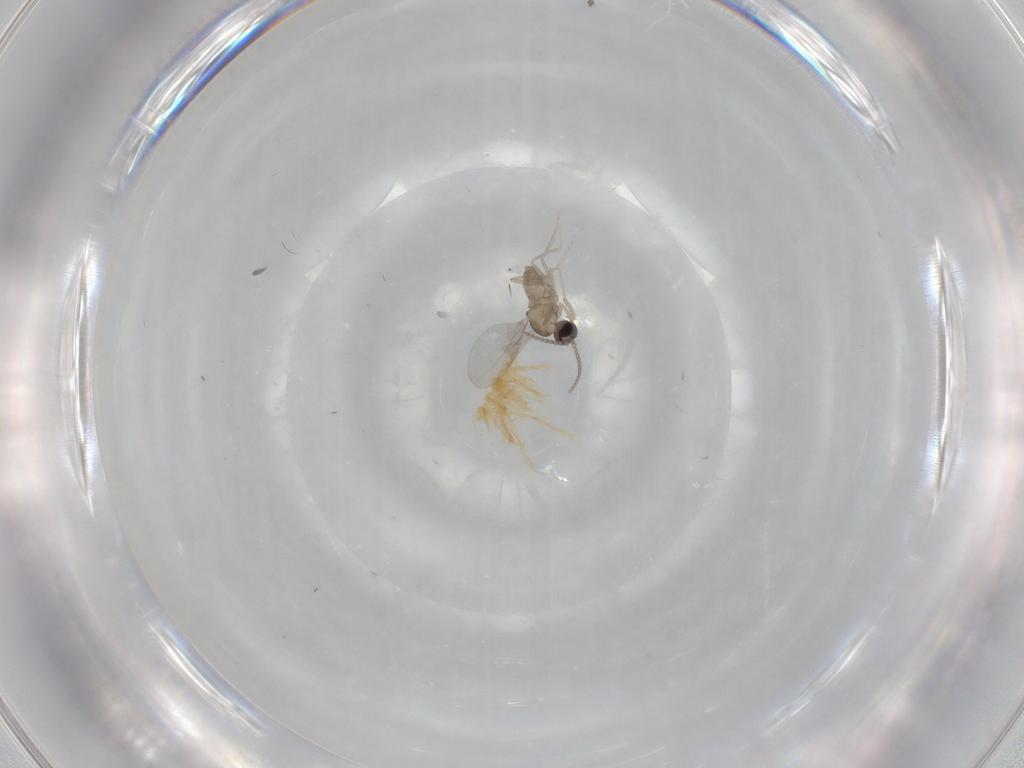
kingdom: Animalia
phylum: Arthropoda
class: Insecta
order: Diptera
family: Cecidomyiidae
